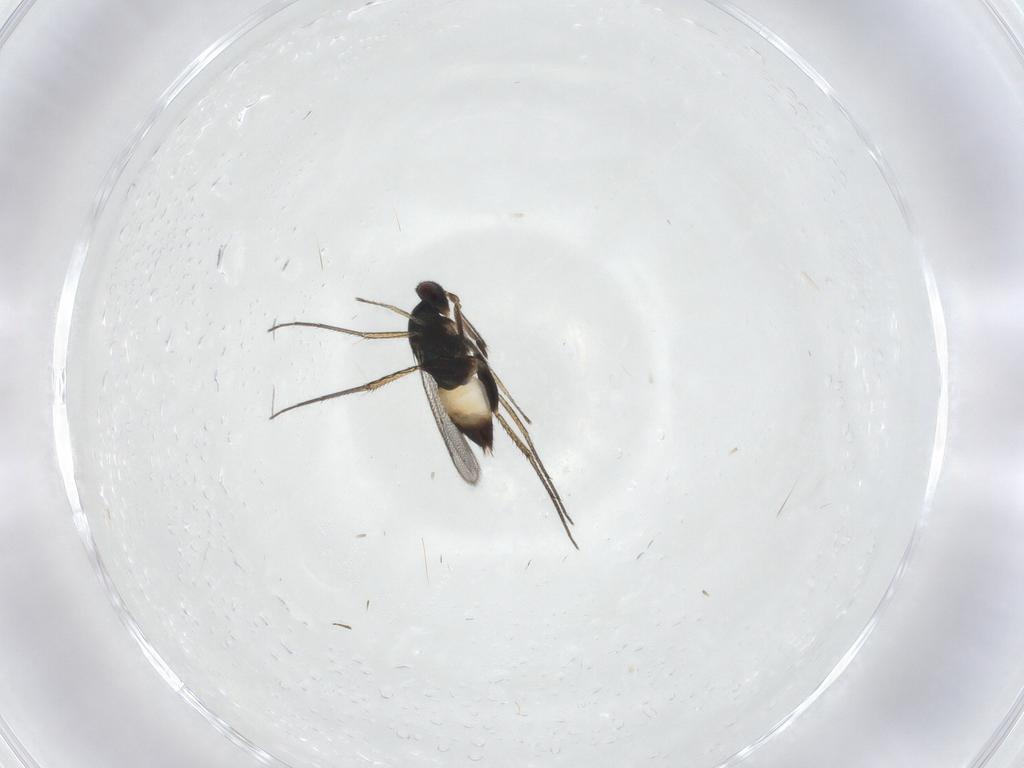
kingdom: Animalia
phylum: Arthropoda
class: Insecta
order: Hymenoptera
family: Eulophidae
